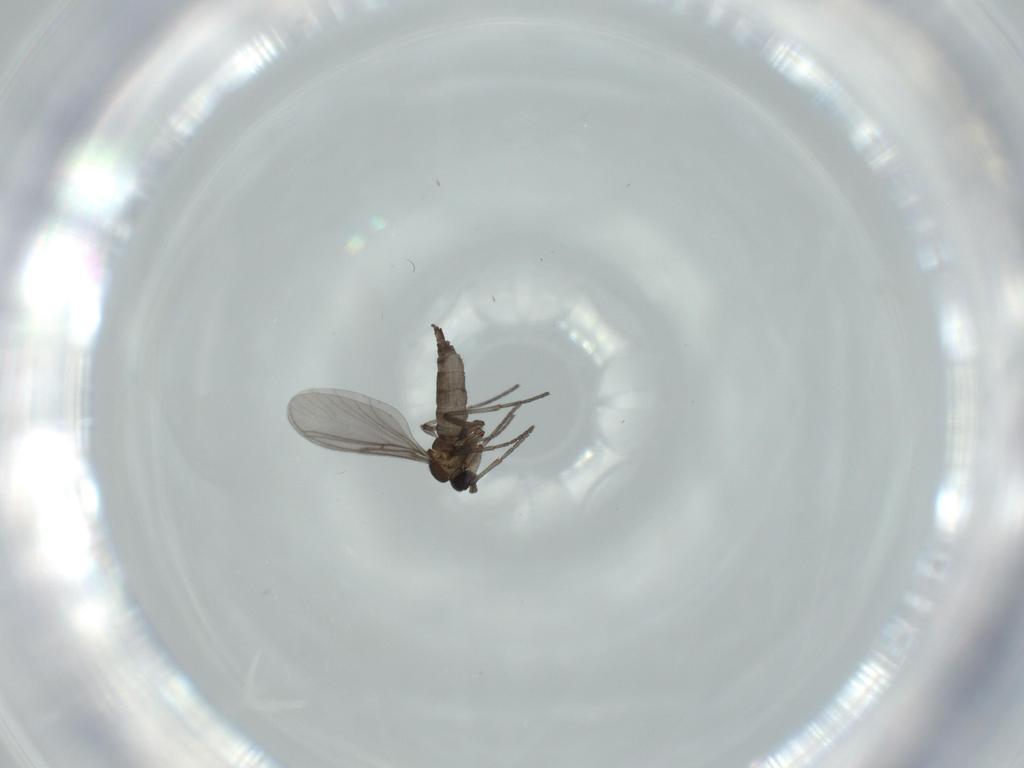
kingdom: Animalia
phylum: Arthropoda
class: Insecta
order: Diptera
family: Cecidomyiidae
